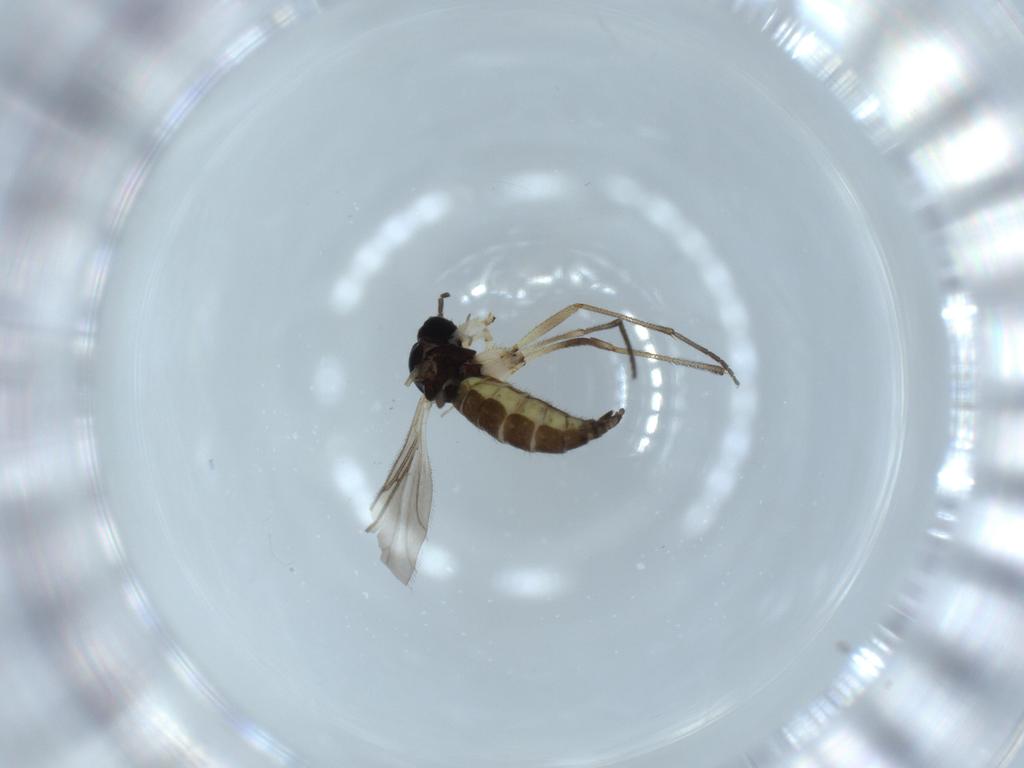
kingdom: Animalia
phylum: Arthropoda
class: Insecta
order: Diptera
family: Sciaridae
